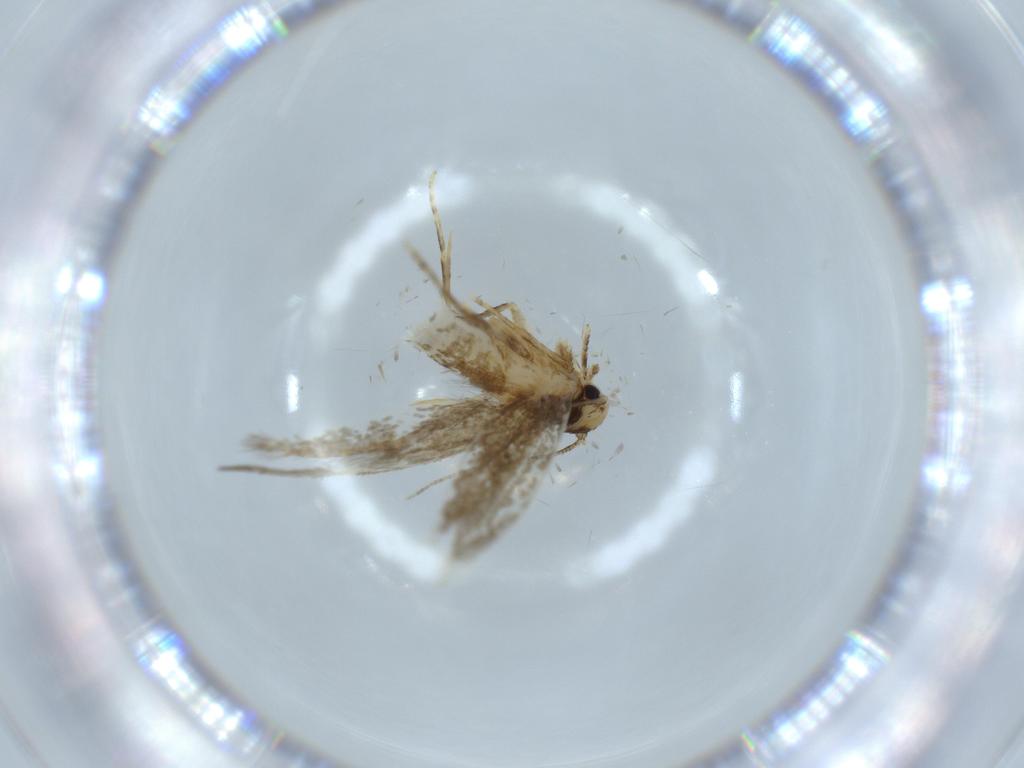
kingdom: Animalia
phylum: Arthropoda
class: Insecta
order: Lepidoptera
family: Tineidae
